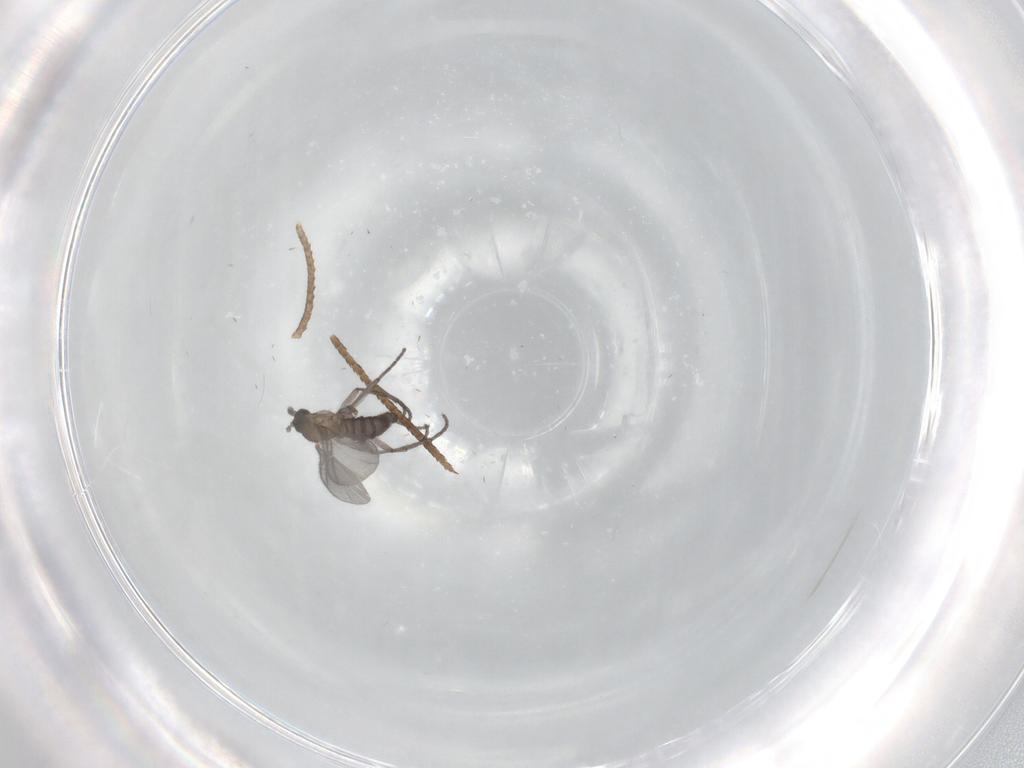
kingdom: Animalia
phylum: Arthropoda
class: Insecta
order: Diptera
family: Sciaridae
